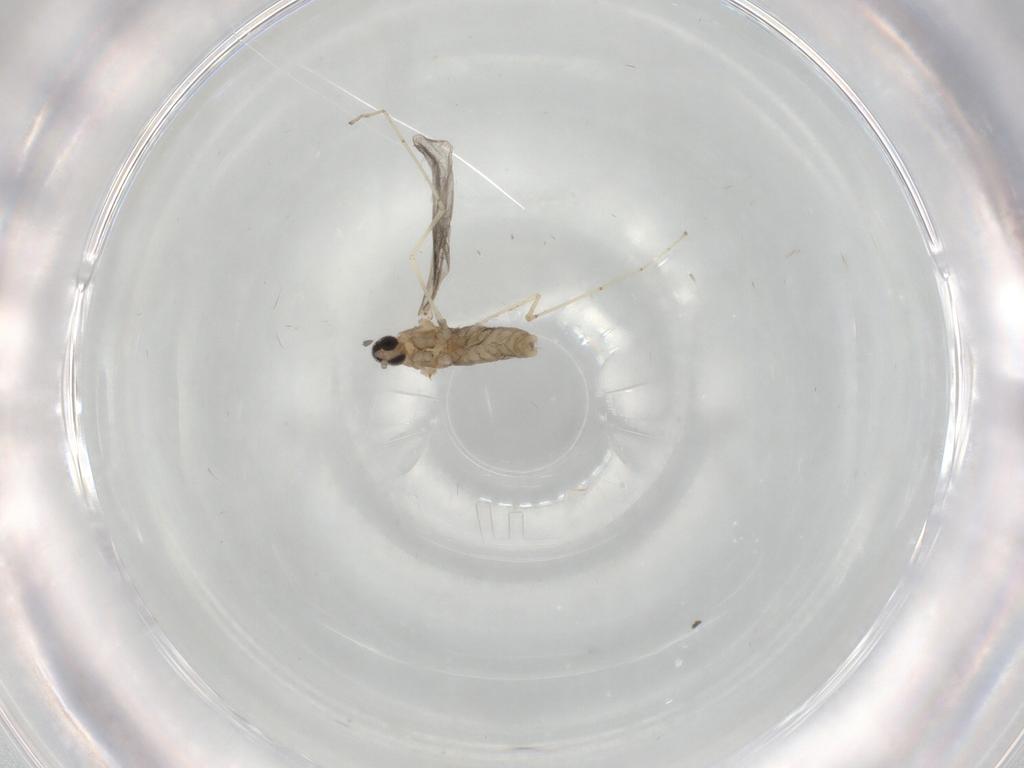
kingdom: Animalia
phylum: Arthropoda
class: Insecta
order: Diptera
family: Cecidomyiidae
